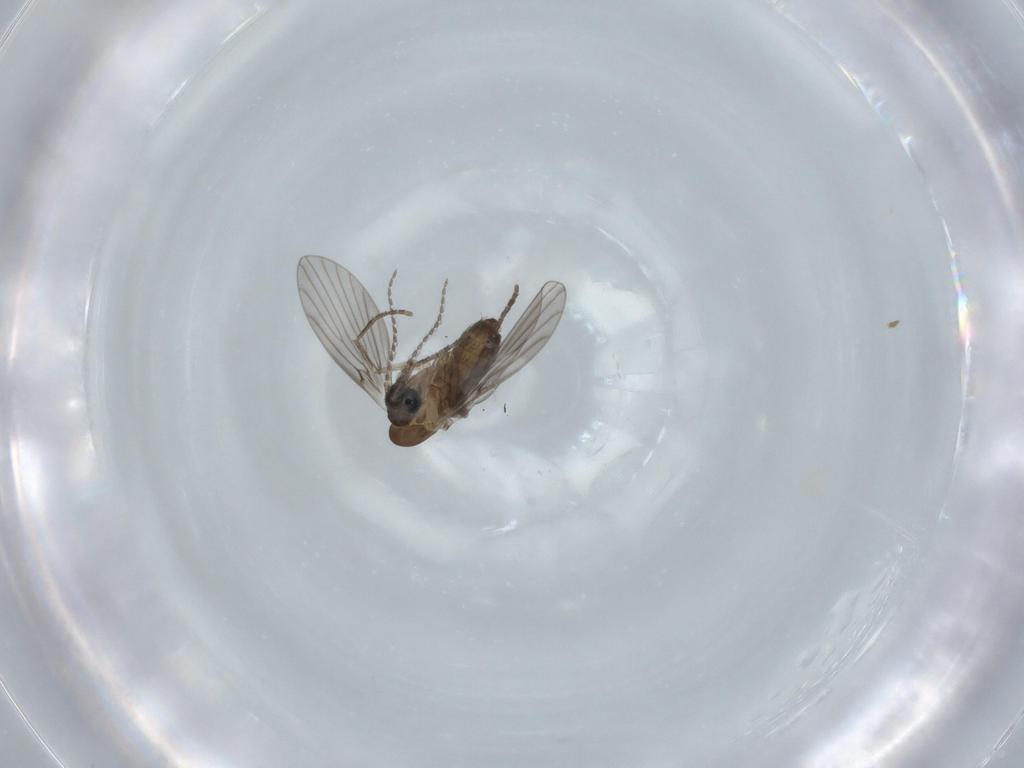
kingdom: Animalia
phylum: Arthropoda
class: Insecta
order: Diptera
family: Psychodidae
